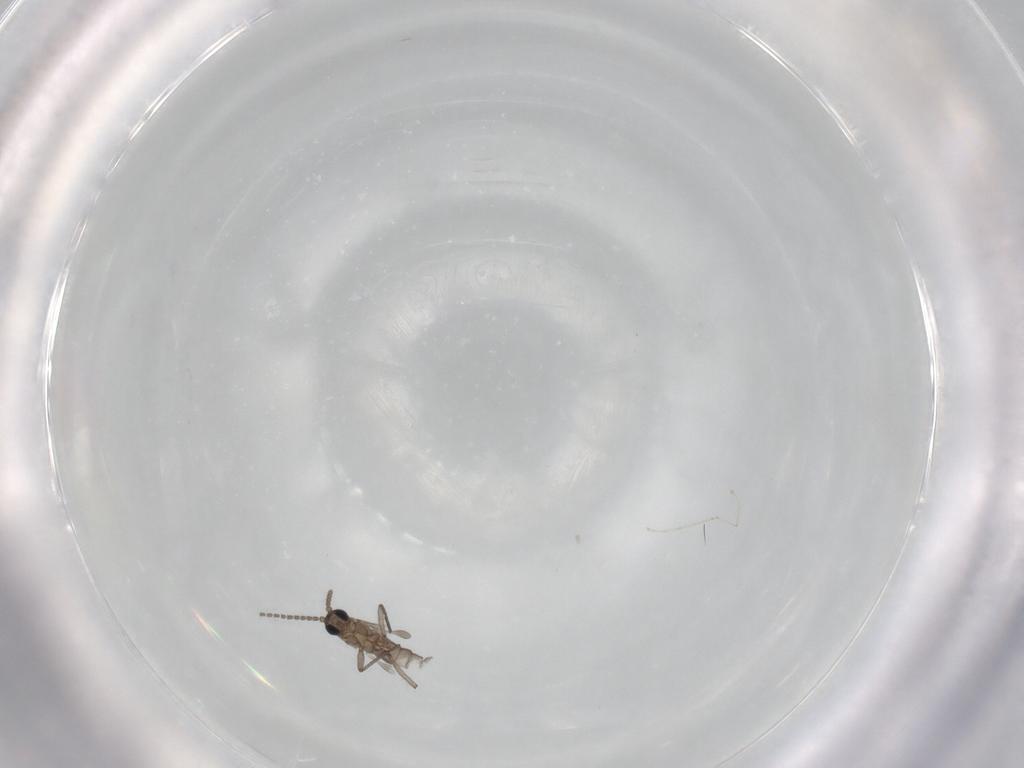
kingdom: Animalia
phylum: Arthropoda
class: Insecta
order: Diptera
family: Sciaridae
